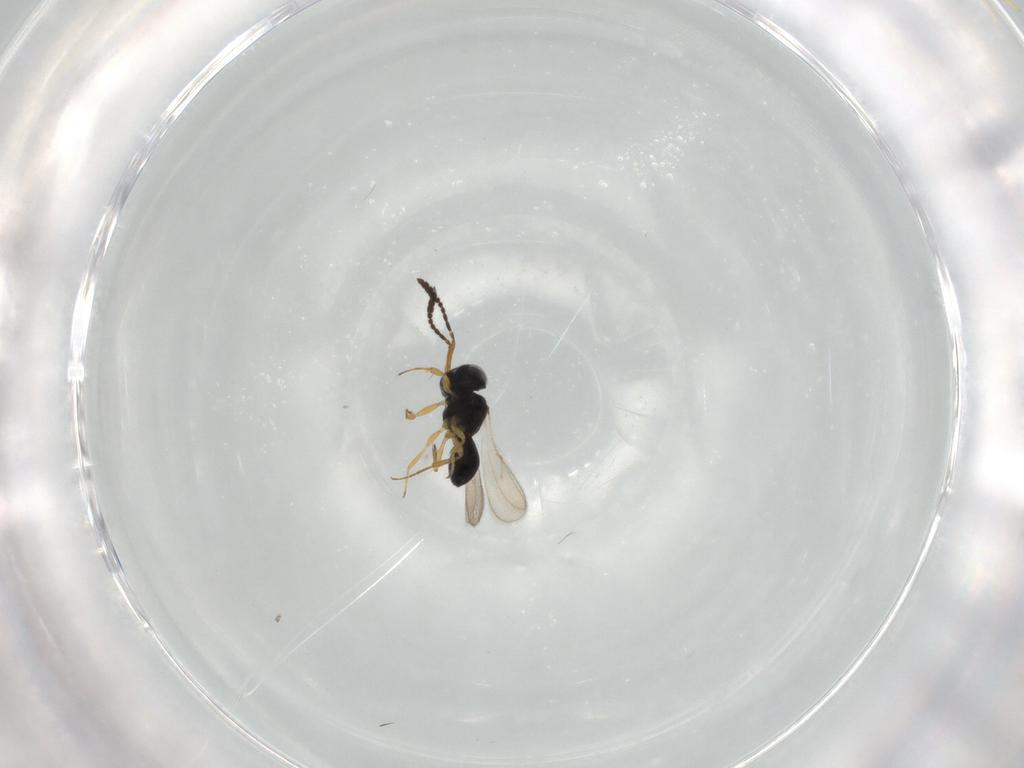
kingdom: Animalia
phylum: Arthropoda
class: Insecta
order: Hymenoptera
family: Scelionidae
